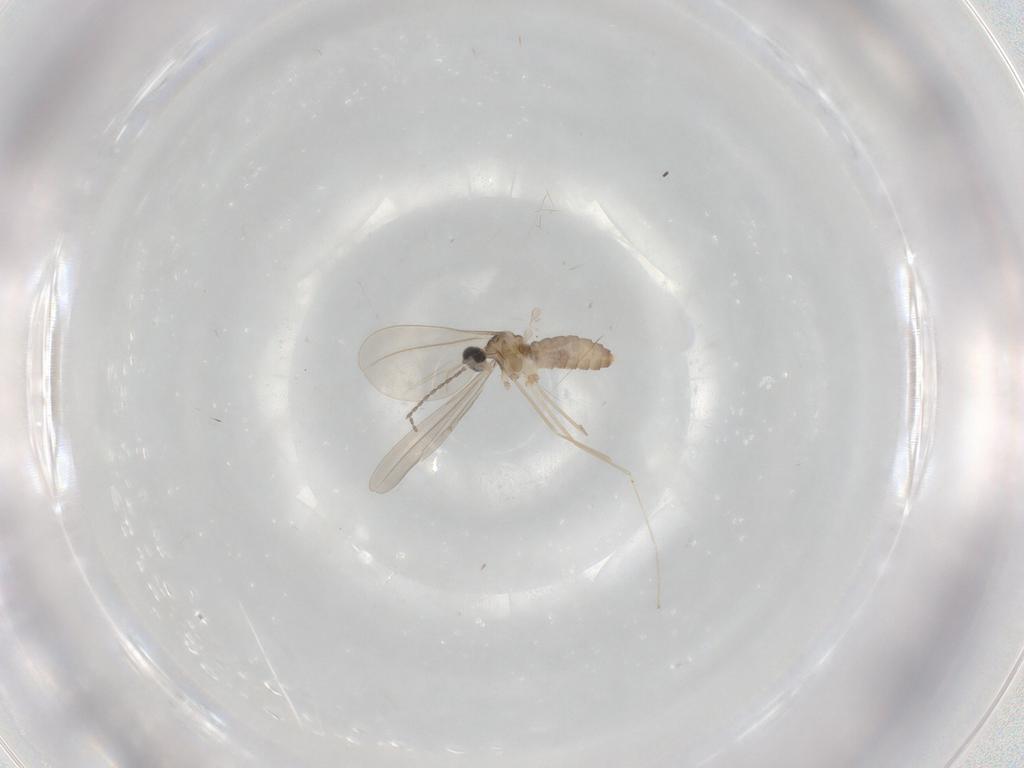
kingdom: Animalia
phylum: Arthropoda
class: Insecta
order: Diptera
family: Cecidomyiidae
